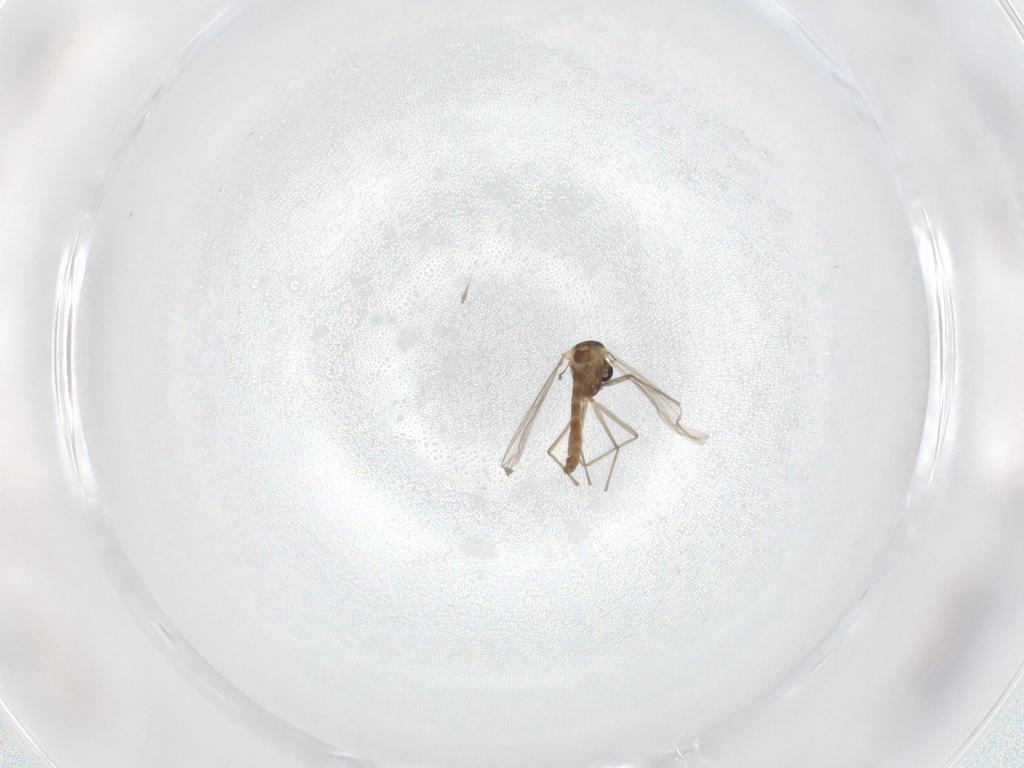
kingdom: Animalia
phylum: Arthropoda
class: Insecta
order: Diptera
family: Chironomidae
